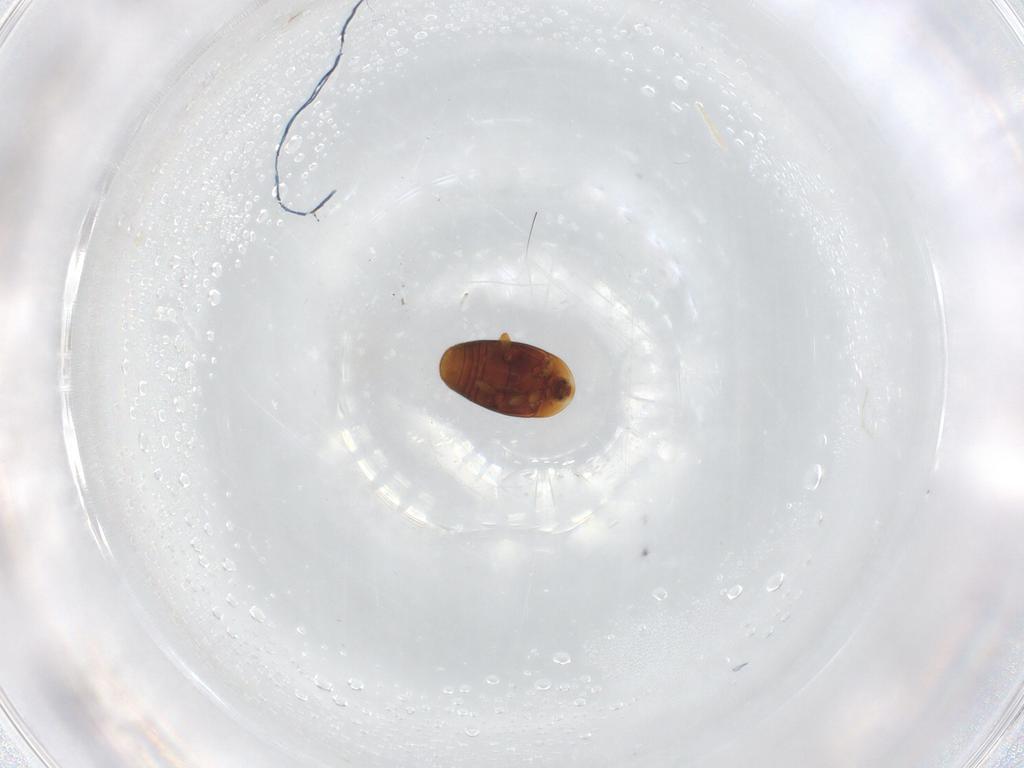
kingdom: Animalia
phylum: Arthropoda
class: Insecta
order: Coleoptera
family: Corylophidae
